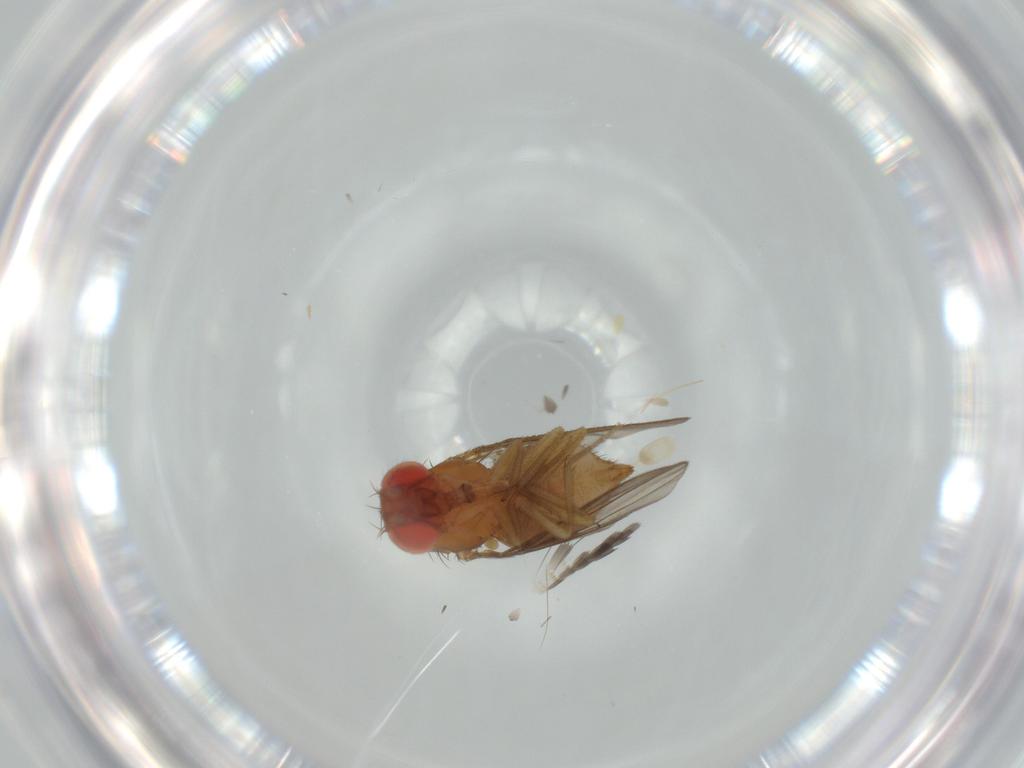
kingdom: Animalia
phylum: Arthropoda
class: Insecta
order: Diptera
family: Drosophilidae
